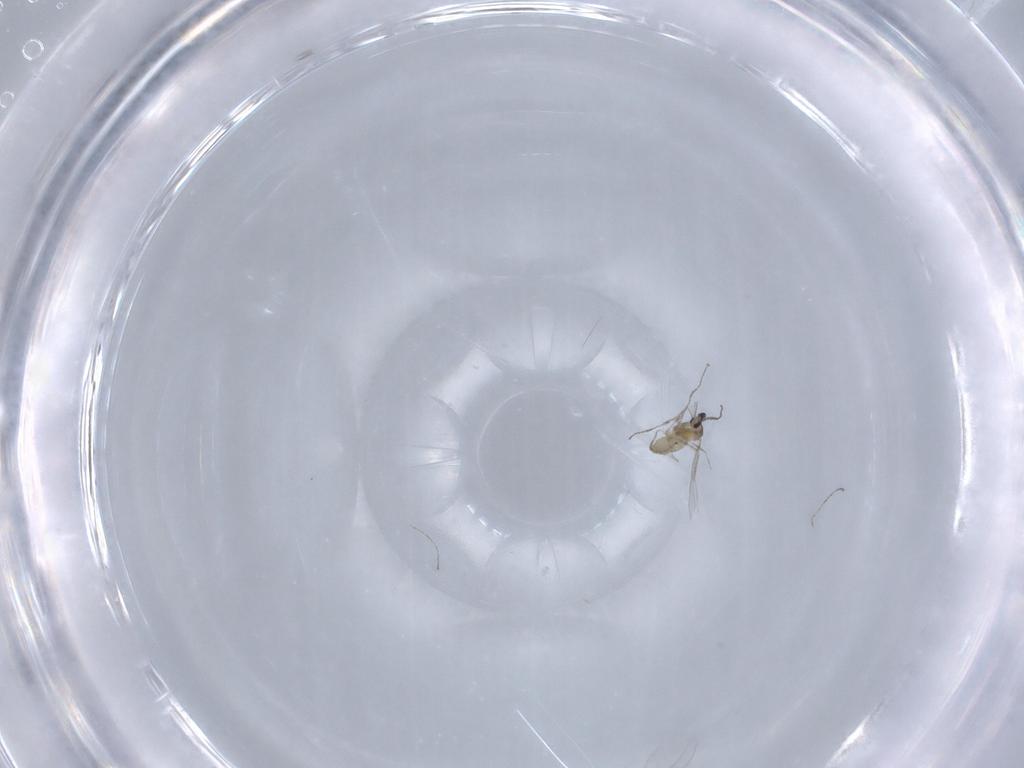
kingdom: Animalia
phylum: Arthropoda
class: Insecta
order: Diptera
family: Cecidomyiidae
